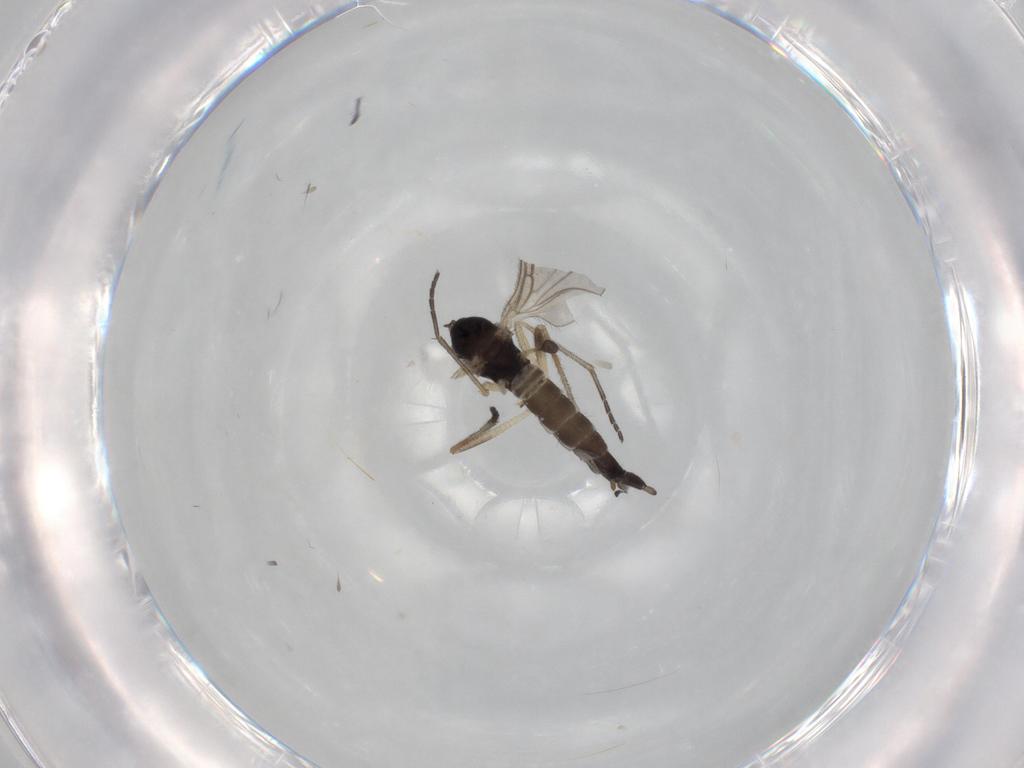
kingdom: Animalia
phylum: Arthropoda
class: Insecta
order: Diptera
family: Sciaridae
